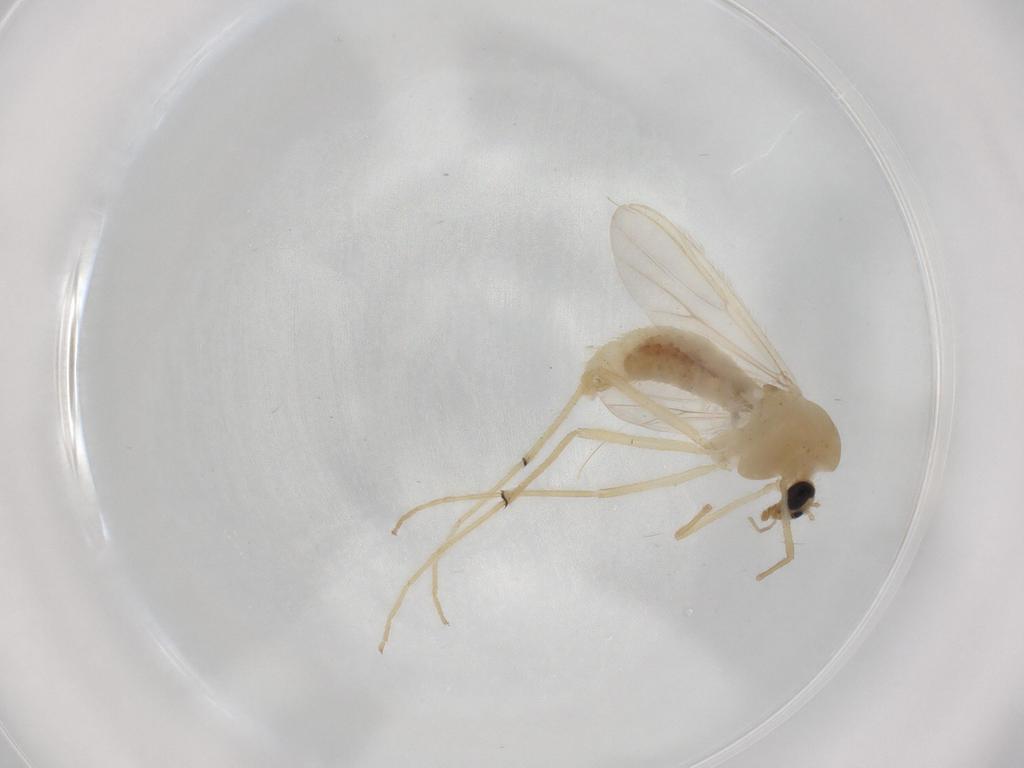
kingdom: Animalia
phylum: Arthropoda
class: Insecta
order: Diptera
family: Chironomidae
